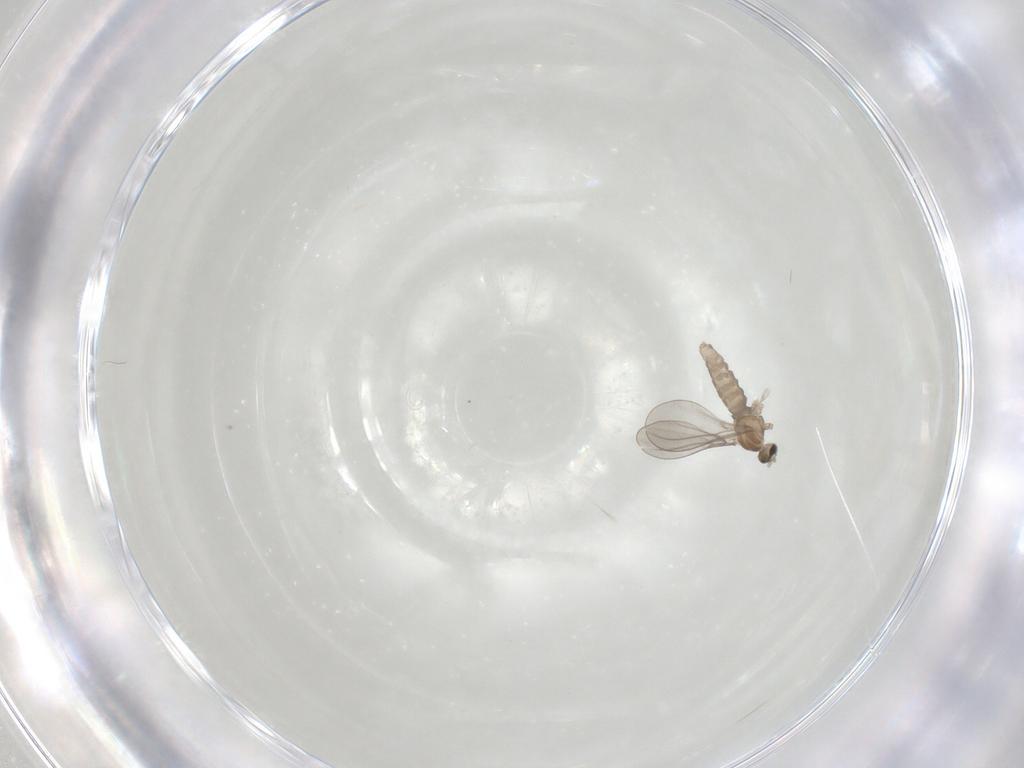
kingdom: Animalia
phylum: Arthropoda
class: Insecta
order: Diptera
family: Cecidomyiidae
